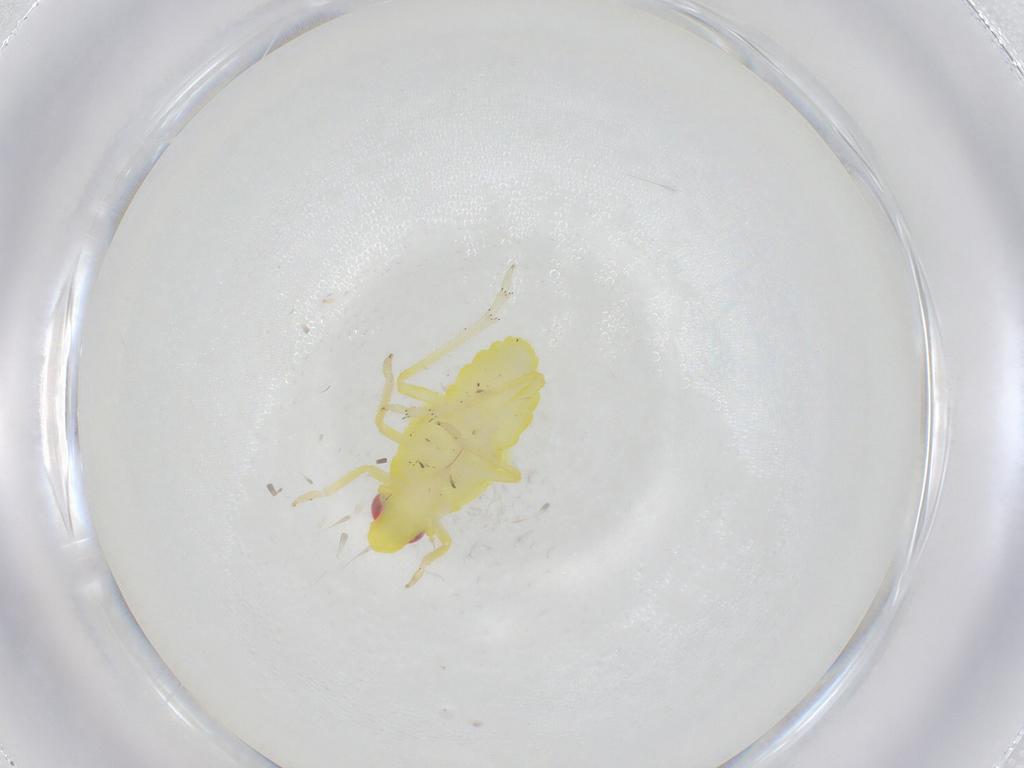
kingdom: Animalia
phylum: Arthropoda
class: Insecta
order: Hemiptera
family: Tropiduchidae
